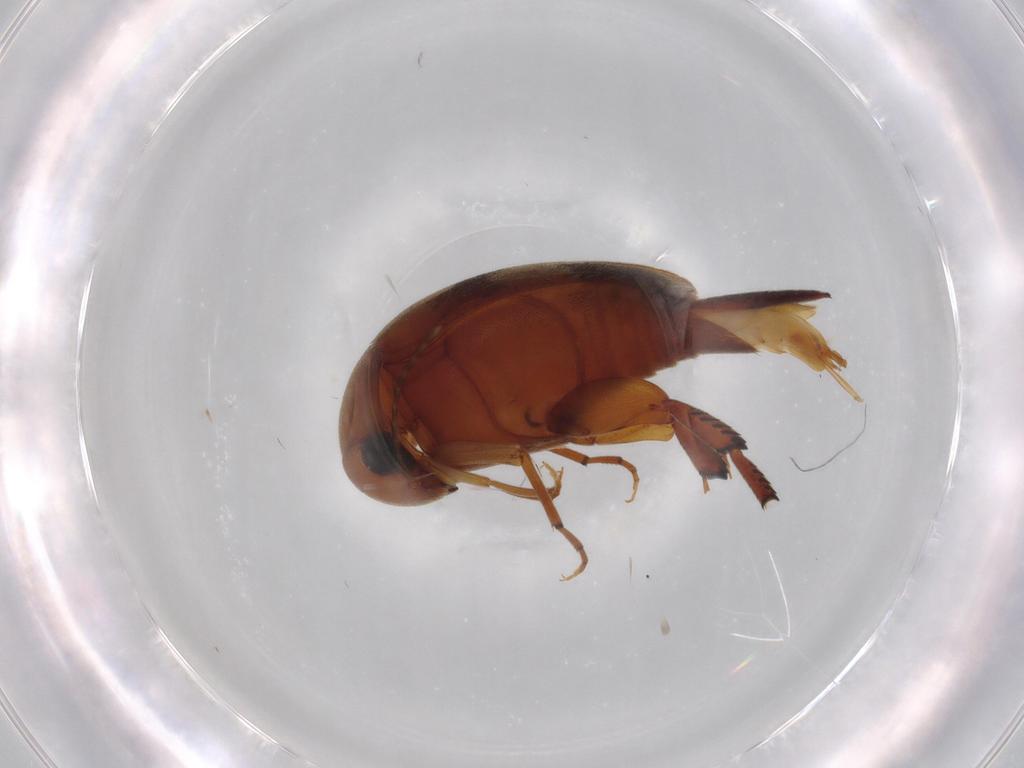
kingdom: Animalia
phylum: Arthropoda
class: Insecta
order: Coleoptera
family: Mordellidae
